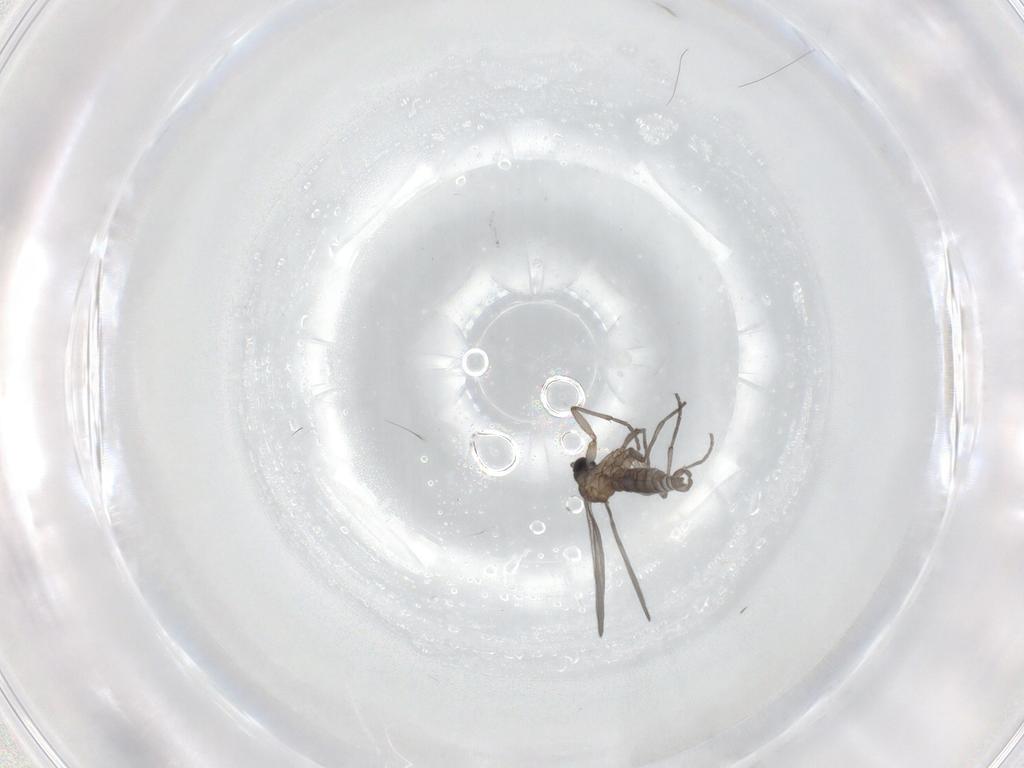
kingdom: Animalia
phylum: Arthropoda
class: Insecta
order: Diptera
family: Sciaridae
